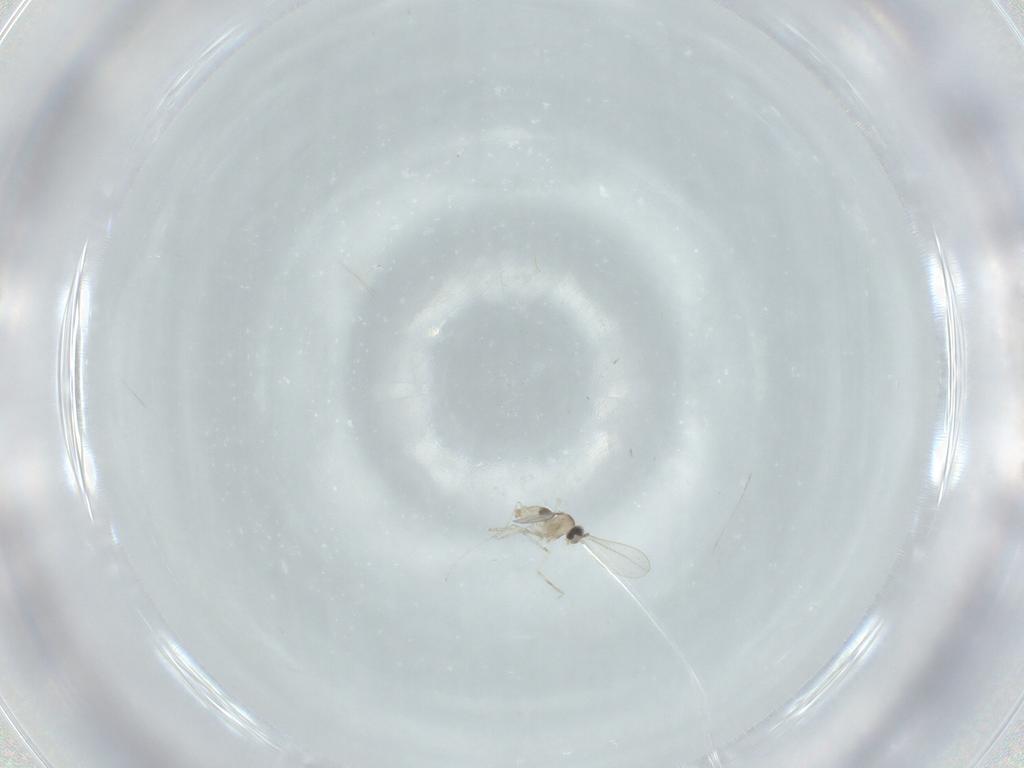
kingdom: Animalia
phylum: Arthropoda
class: Insecta
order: Diptera
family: Cecidomyiidae
